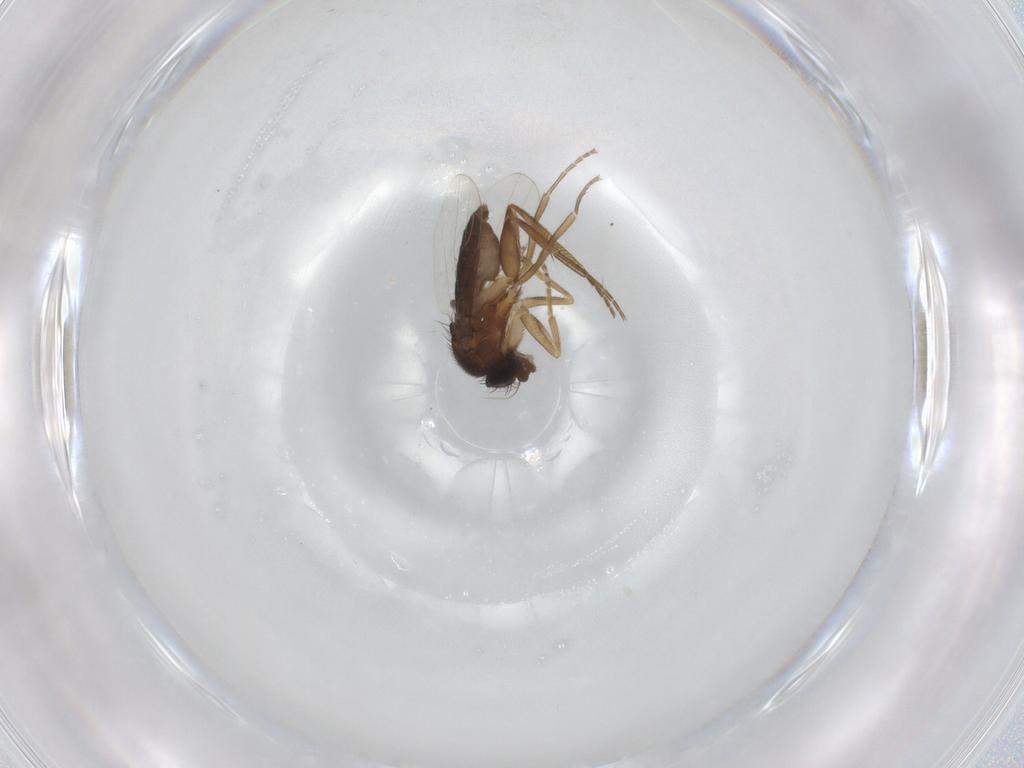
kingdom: Animalia
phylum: Arthropoda
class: Insecta
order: Diptera
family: Phoridae
